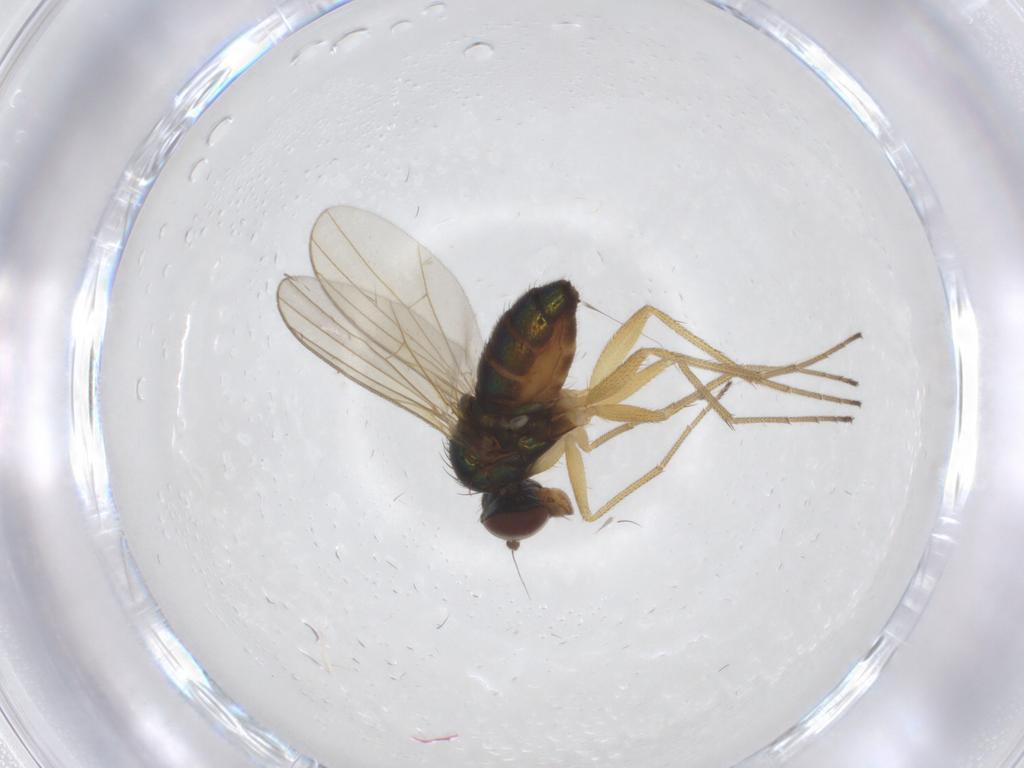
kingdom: Animalia
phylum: Arthropoda
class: Insecta
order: Diptera
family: Dolichopodidae
